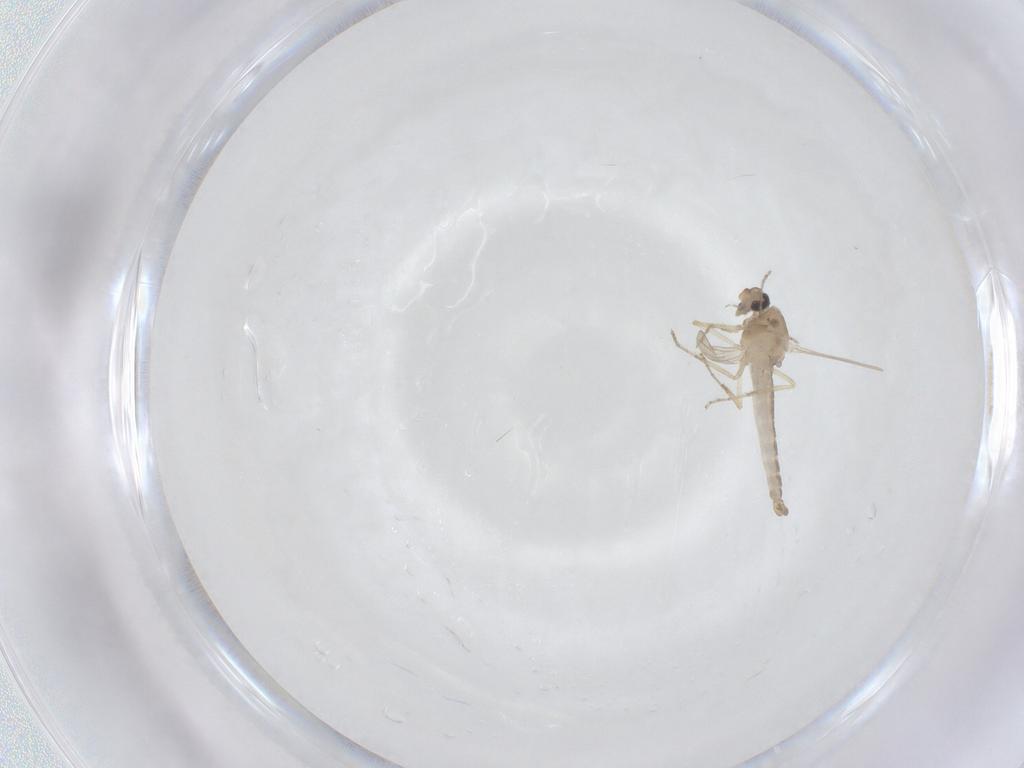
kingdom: Animalia
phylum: Arthropoda
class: Insecta
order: Diptera
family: Ceratopogonidae
